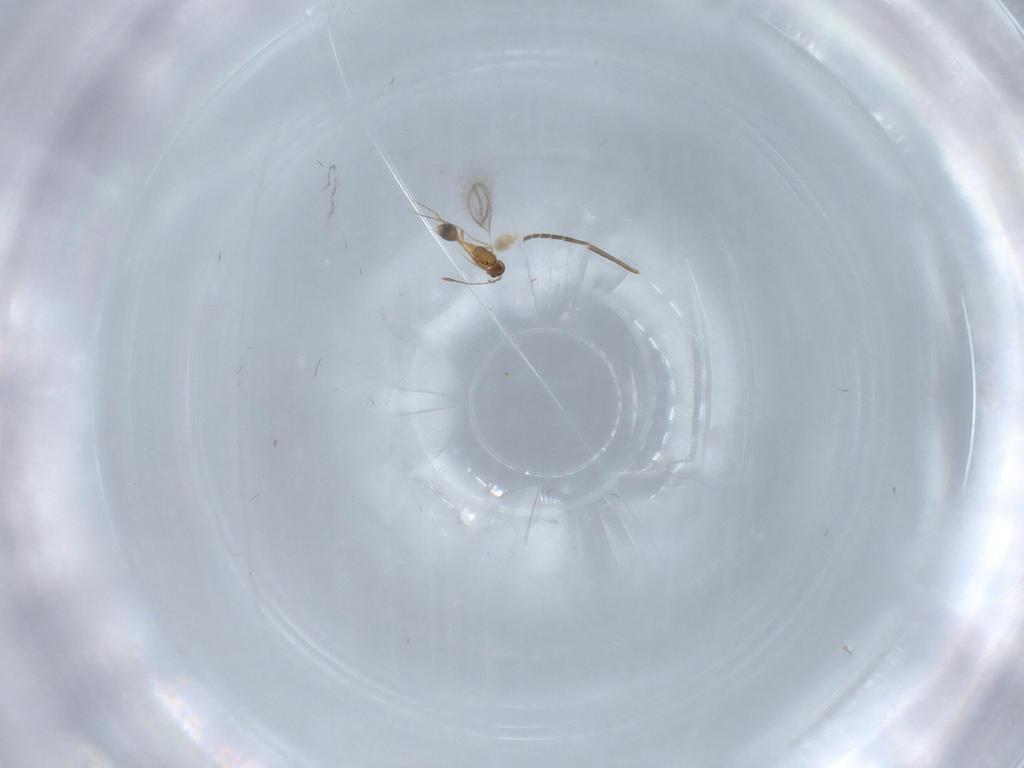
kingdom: Animalia
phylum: Arthropoda
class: Insecta
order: Hymenoptera
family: Mymarommatidae
